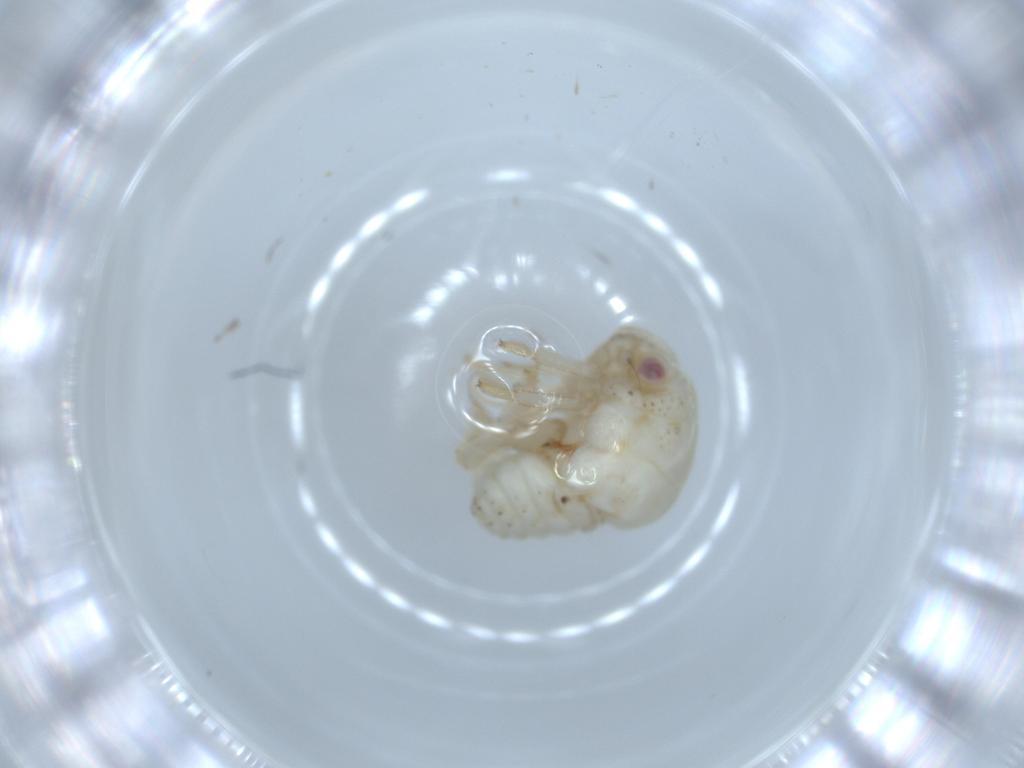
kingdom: Animalia
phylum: Arthropoda
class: Insecta
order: Hemiptera
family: Acanaloniidae
